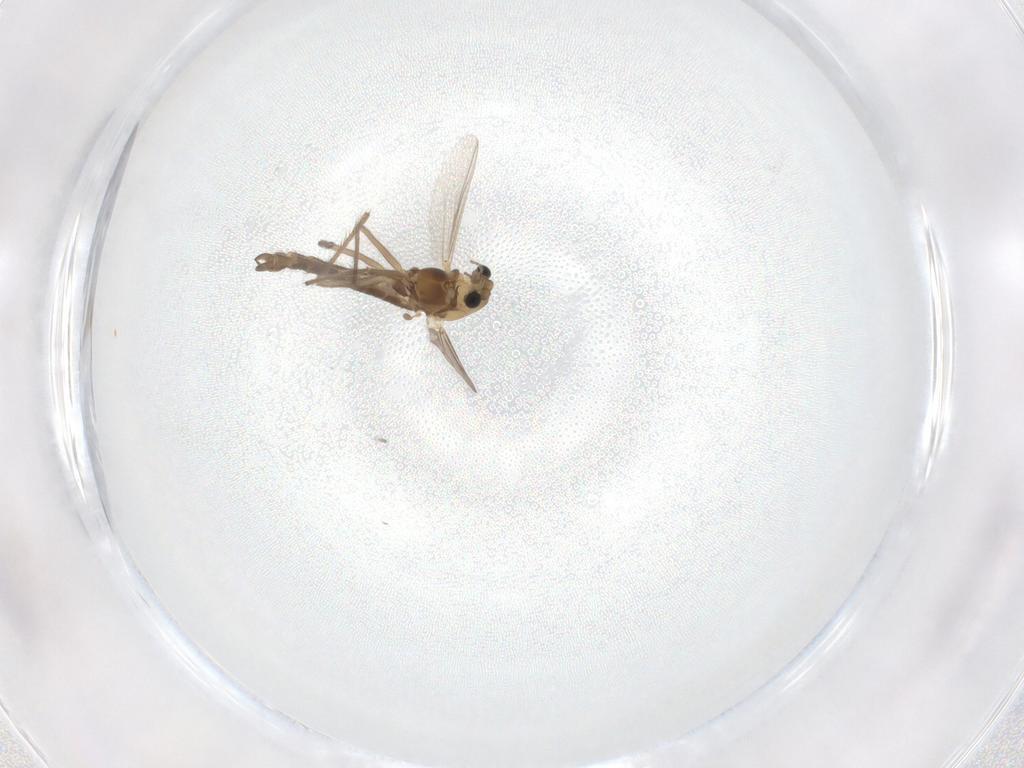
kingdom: Animalia
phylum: Arthropoda
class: Insecta
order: Diptera
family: Chironomidae
